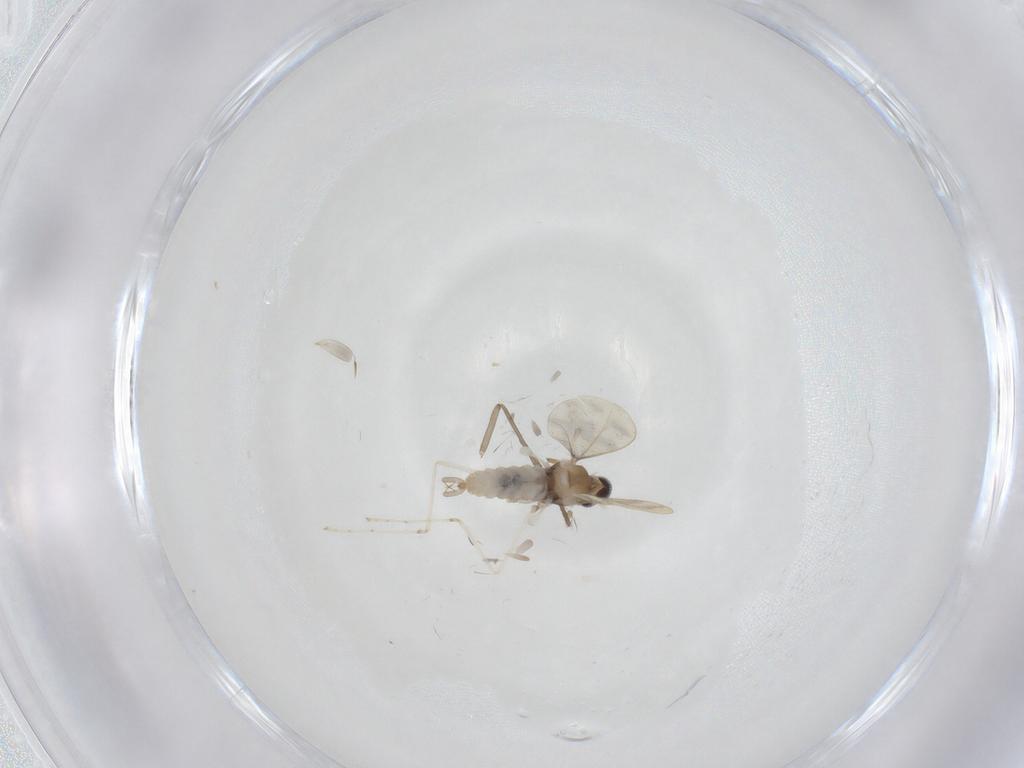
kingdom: Animalia
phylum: Arthropoda
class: Insecta
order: Diptera
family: Cecidomyiidae
